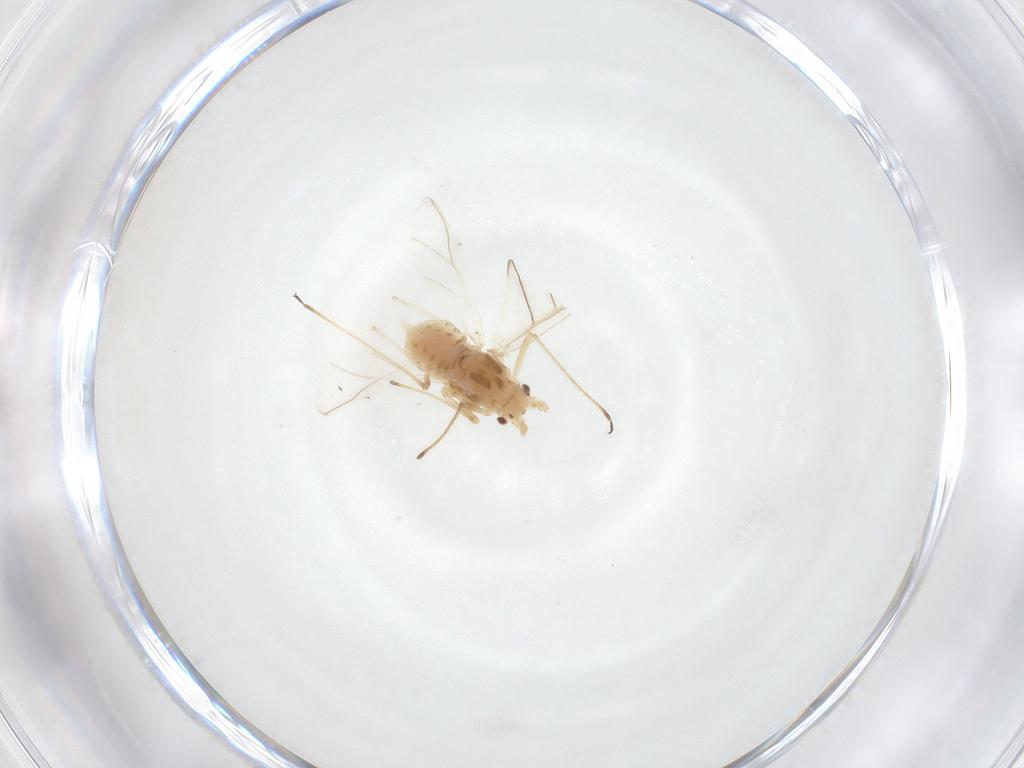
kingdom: Animalia
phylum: Arthropoda
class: Insecta
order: Hemiptera
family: Aphididae
